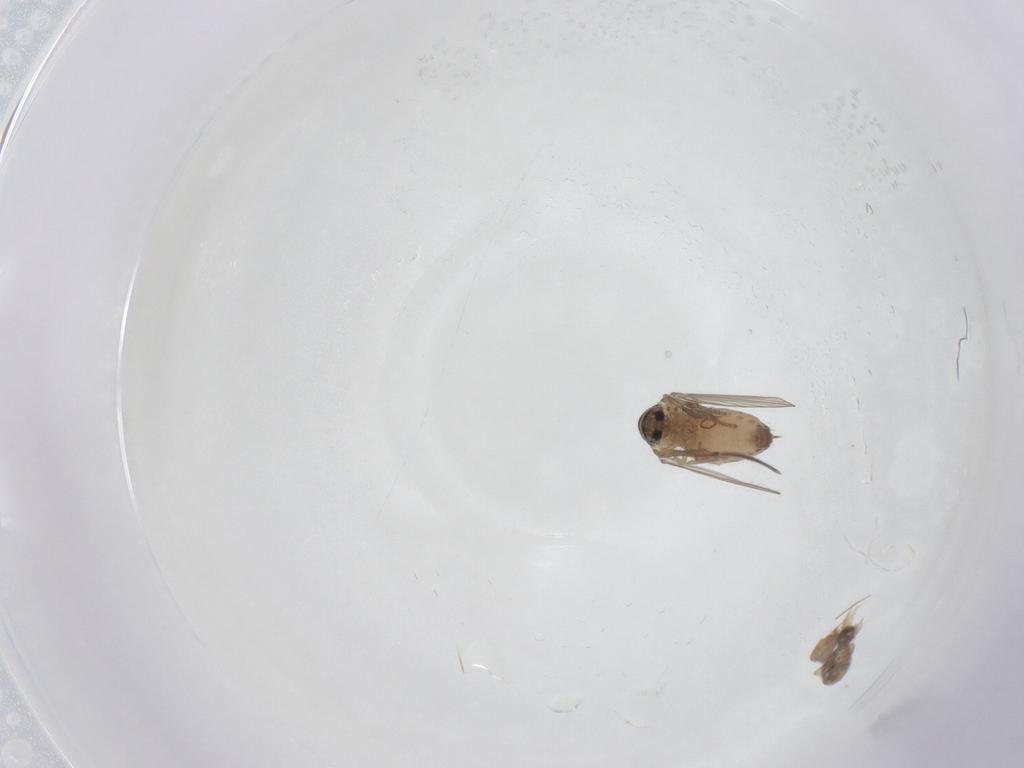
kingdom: Animalia
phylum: Arthropoda
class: Insecta
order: Diptera
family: Psychodidae
